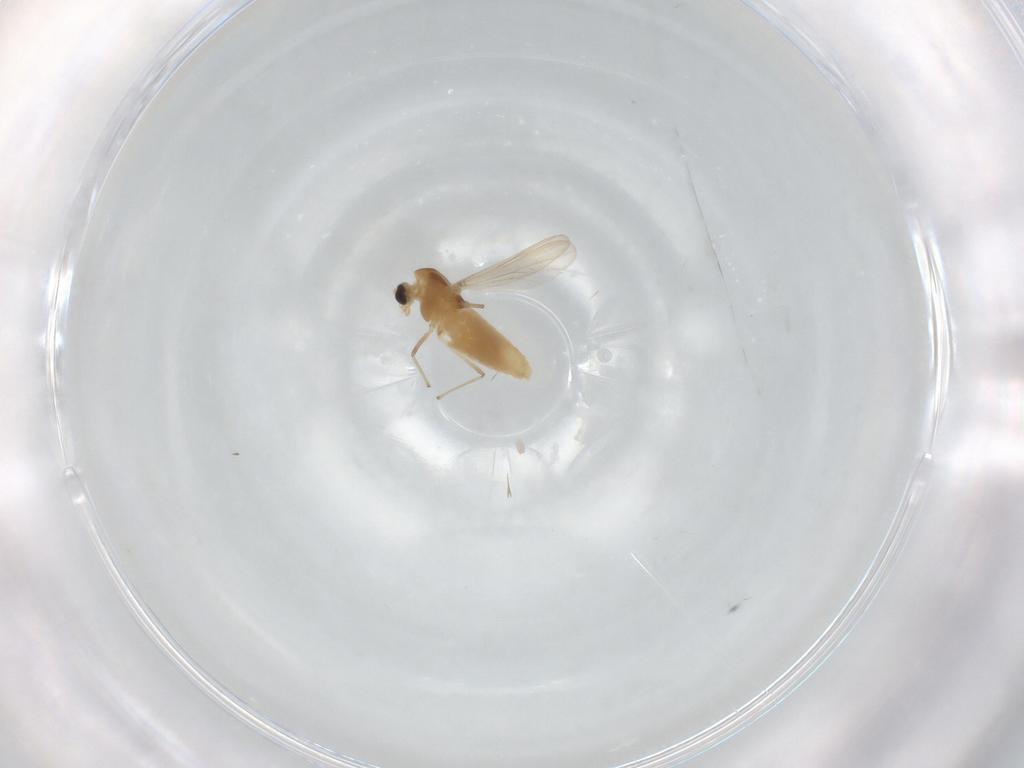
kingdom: Animalia
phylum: Arthropoda
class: Insecta
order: Diptera
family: Chironomidae
